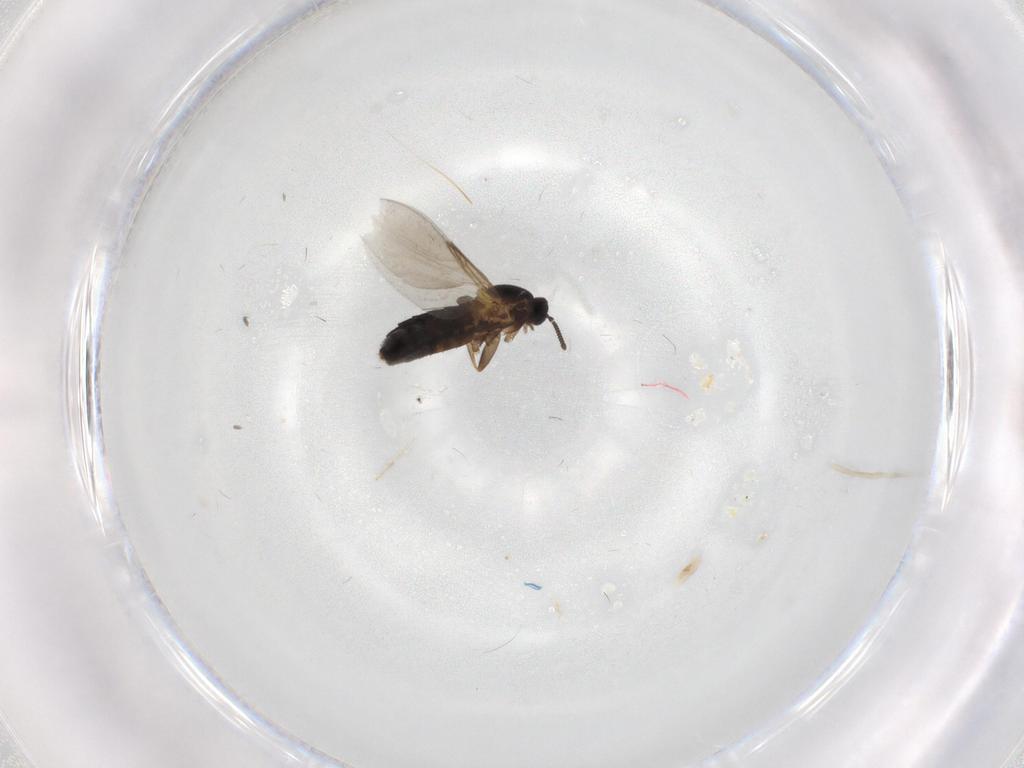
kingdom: Animalia
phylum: Arthropoda
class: Insecta
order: Diptera
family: Scatopsidae
